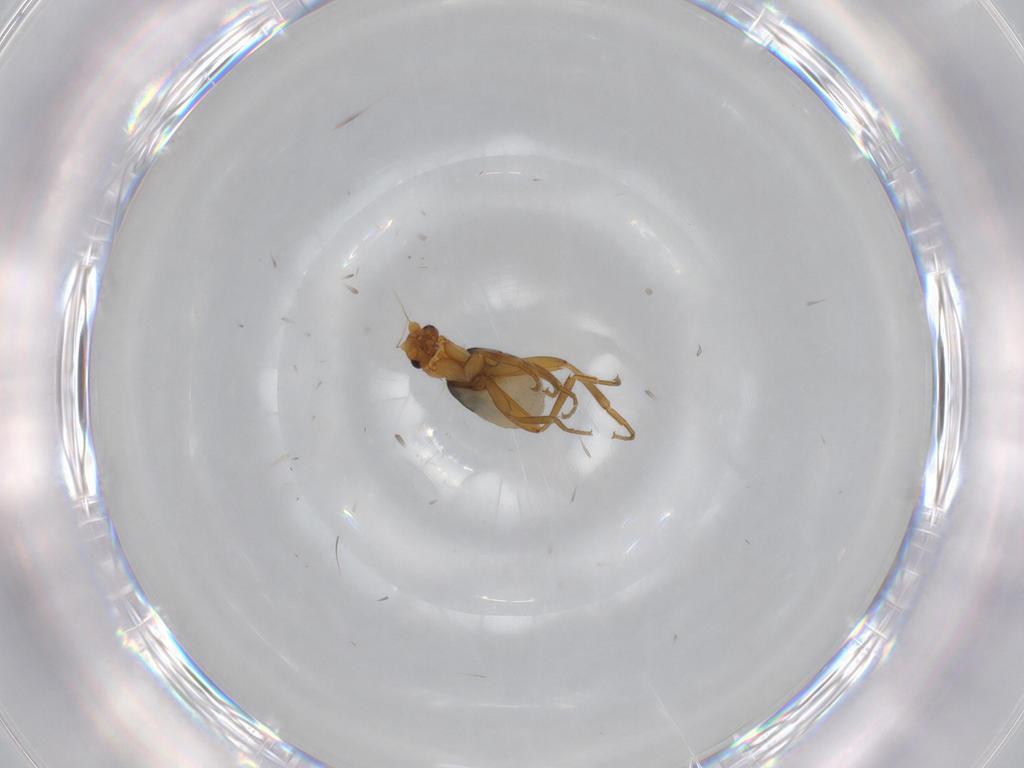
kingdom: Animalia
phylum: Arthropoda
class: Insecta
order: Diptera
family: Phoridae
